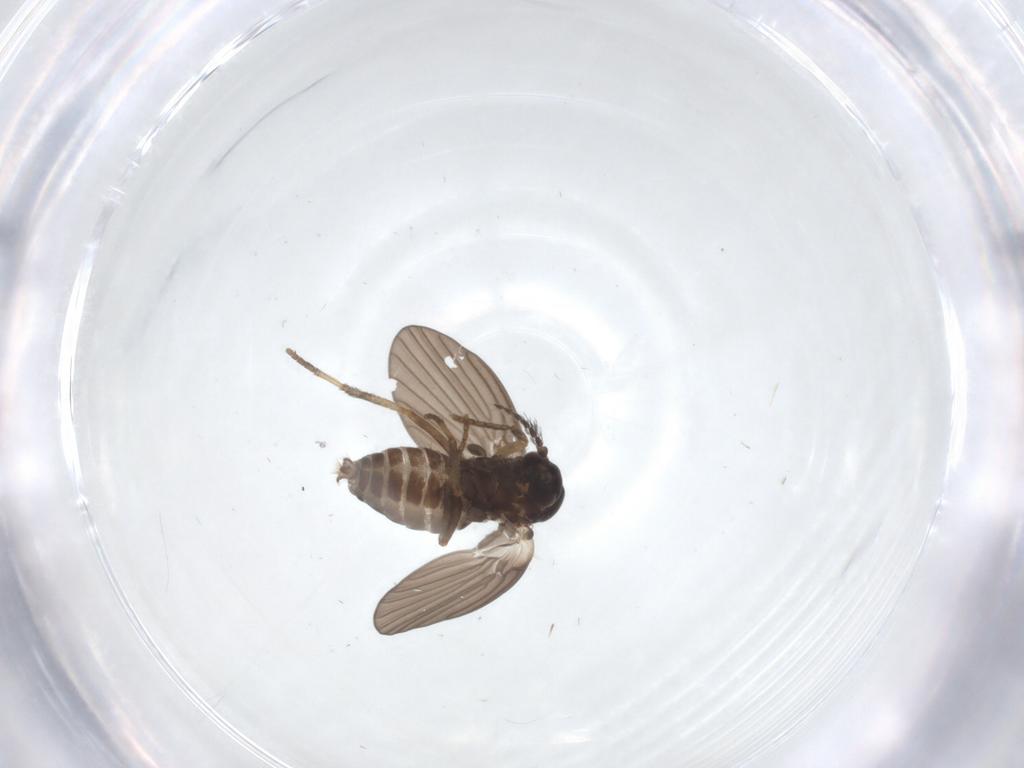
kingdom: Animalia
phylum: Arthropoda
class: Insecta
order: Diptera
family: Psychodidae
